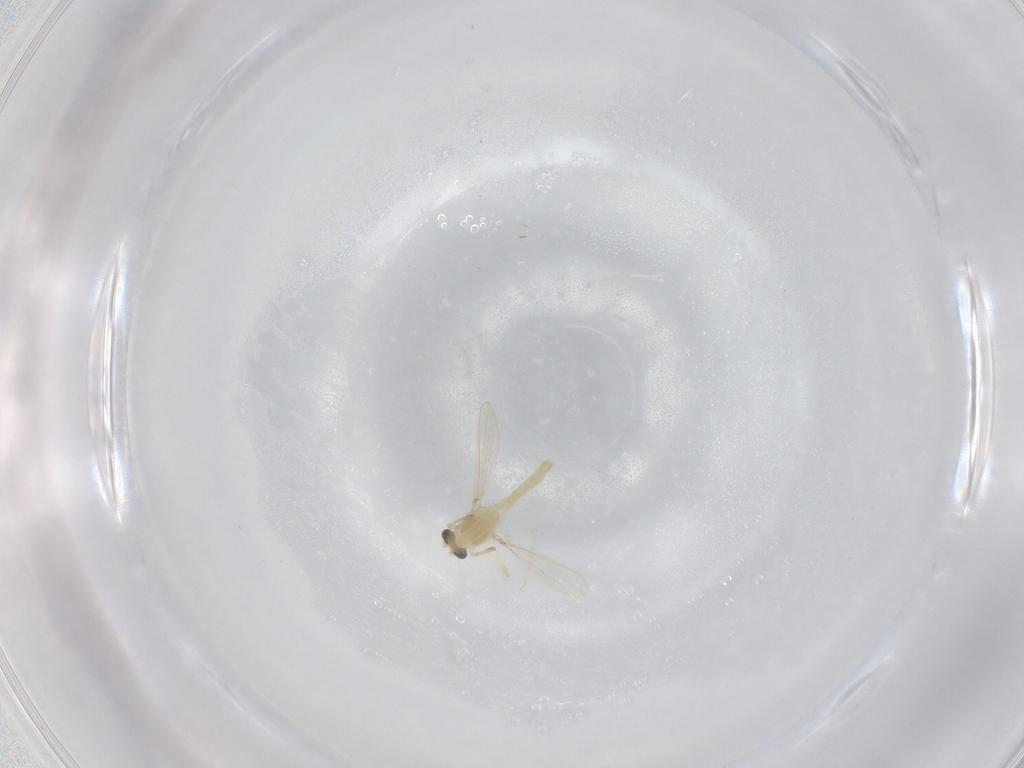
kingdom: Animalia
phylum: Arthropoda
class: Insecta
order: Diptera
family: Chironomidae
